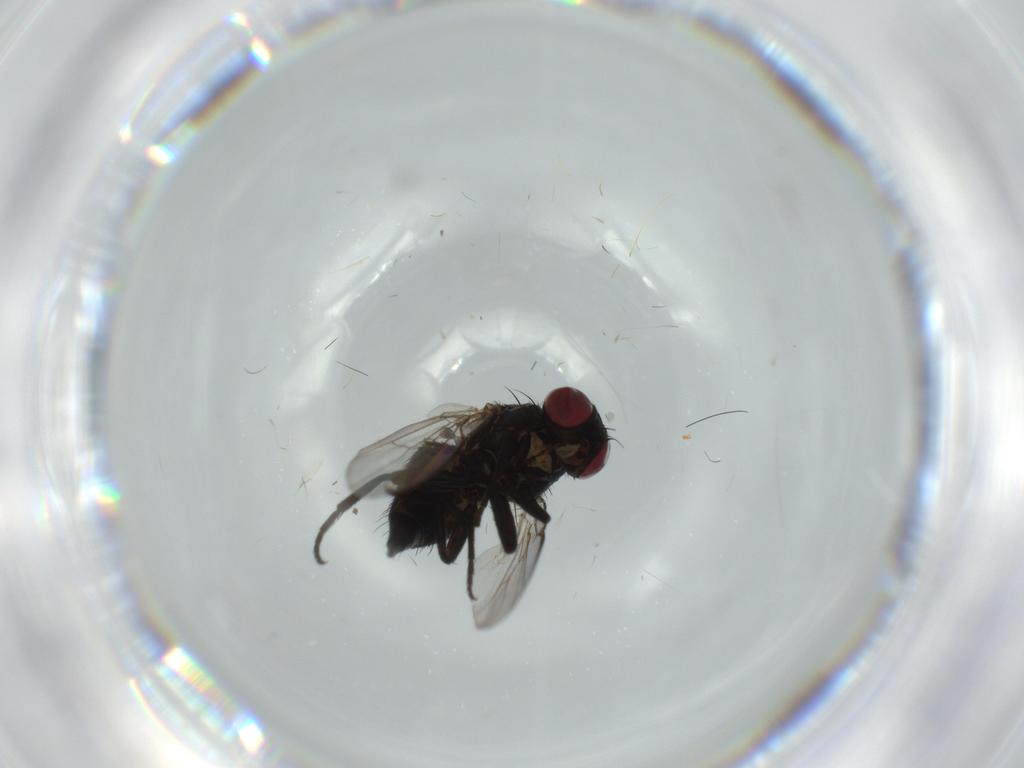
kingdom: Animalia
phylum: Arthropoda
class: Insecta
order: Diptera
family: Agromyzidae
